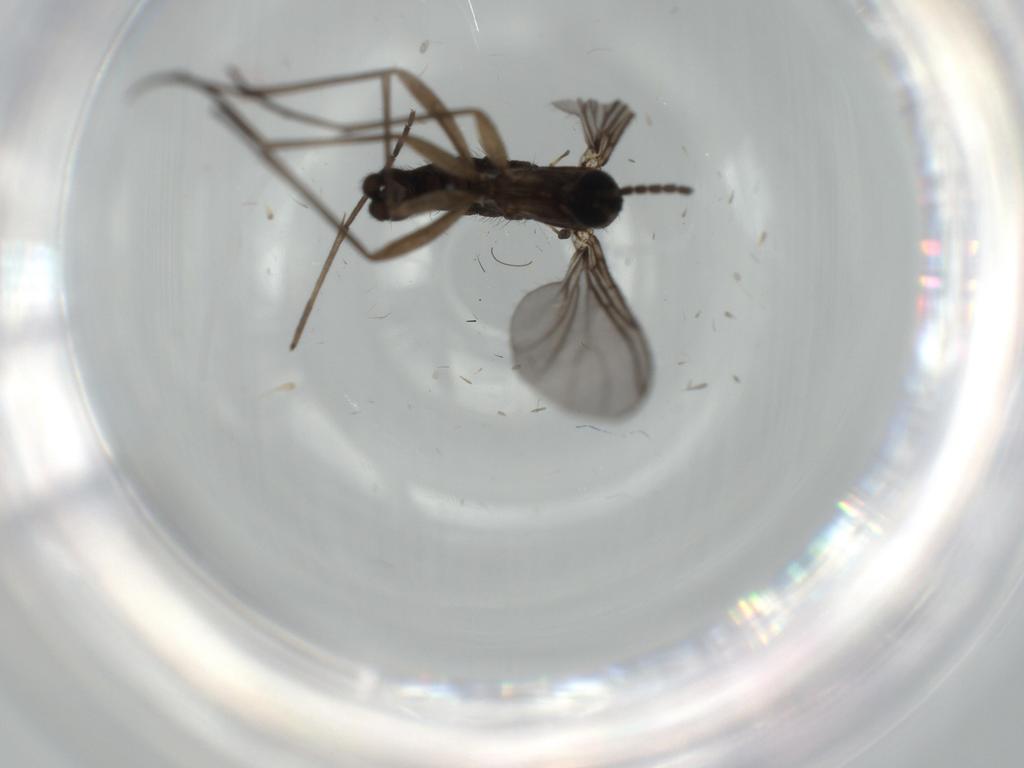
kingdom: Animalia
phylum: Arthropoda
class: Insecta
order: Diptera
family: Sciaridae
